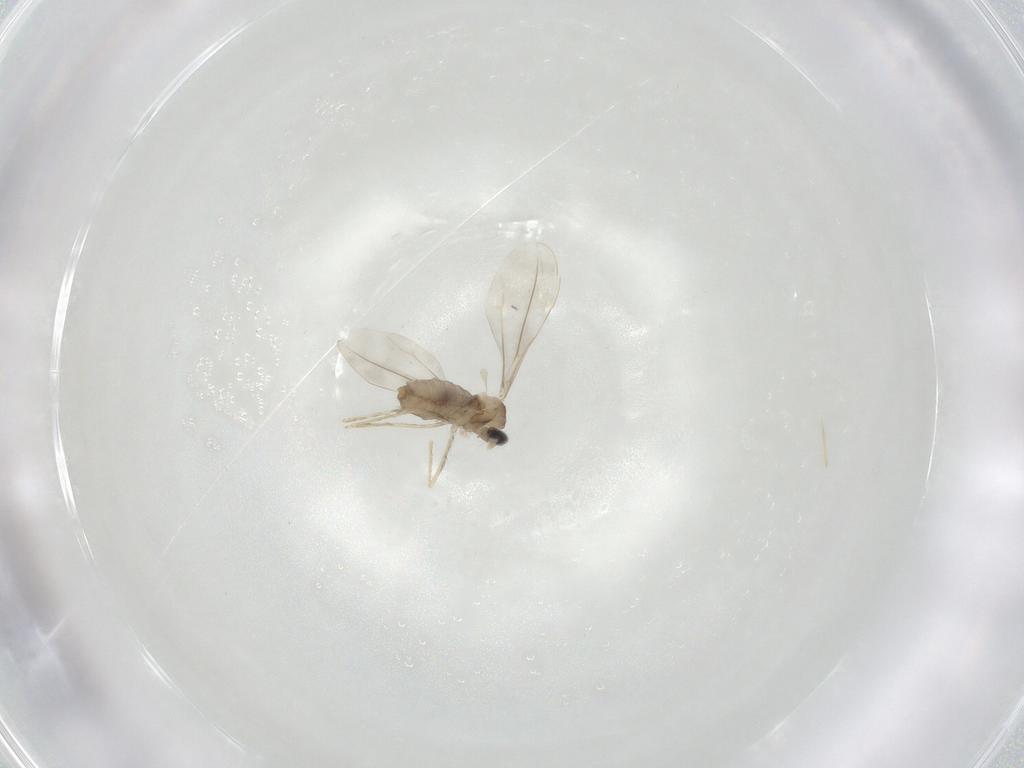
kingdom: Animalia
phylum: Arthropoda
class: Insecta
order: Diptera
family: Cecidomyiidae
